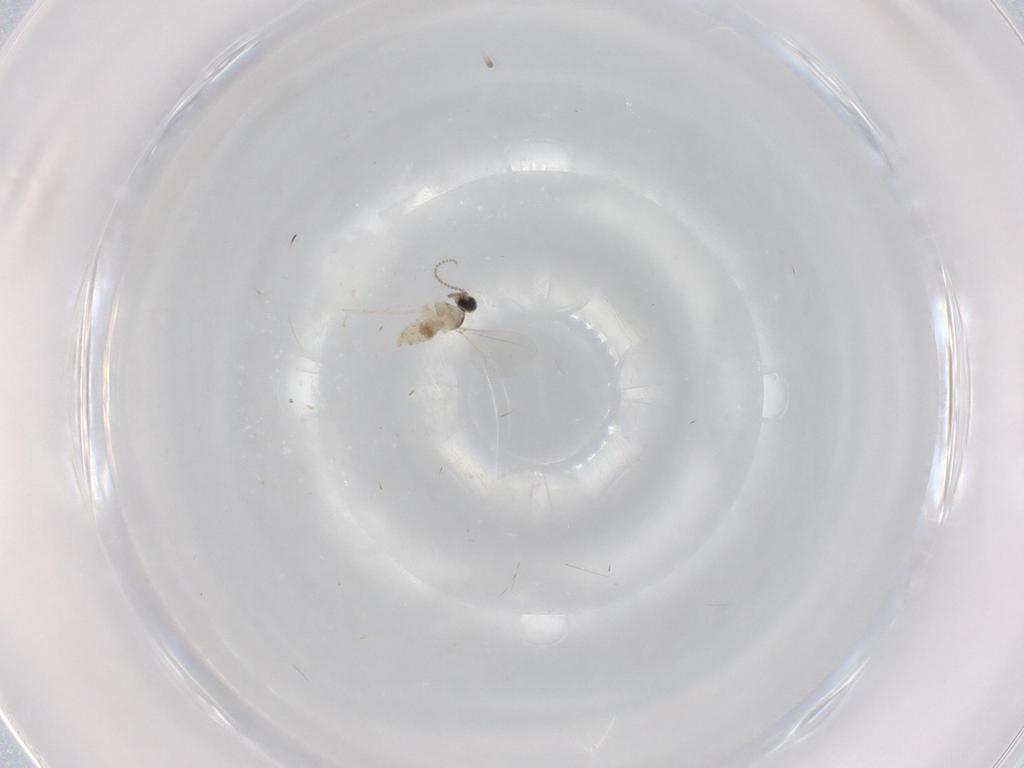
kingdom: Animalia
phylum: Arthropoda
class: Insecta
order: Diptera
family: Cecidomyiidae
